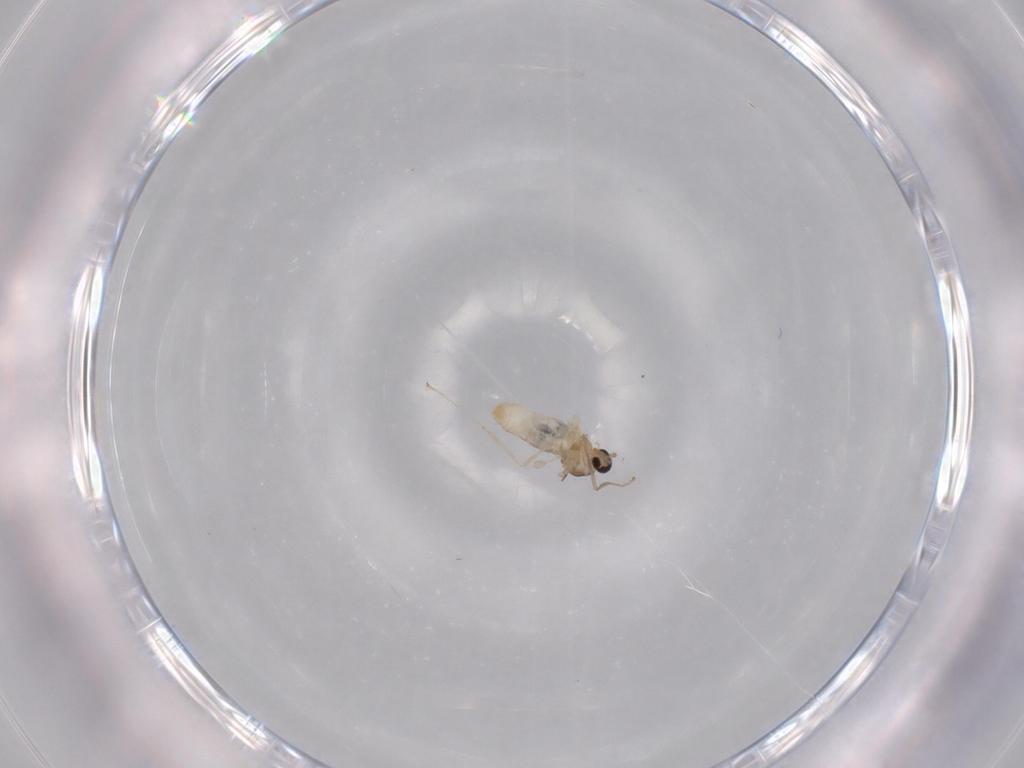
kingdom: Animalia
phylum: Arthropoda
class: Insecta
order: Diptera
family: Cecidomyiidae
